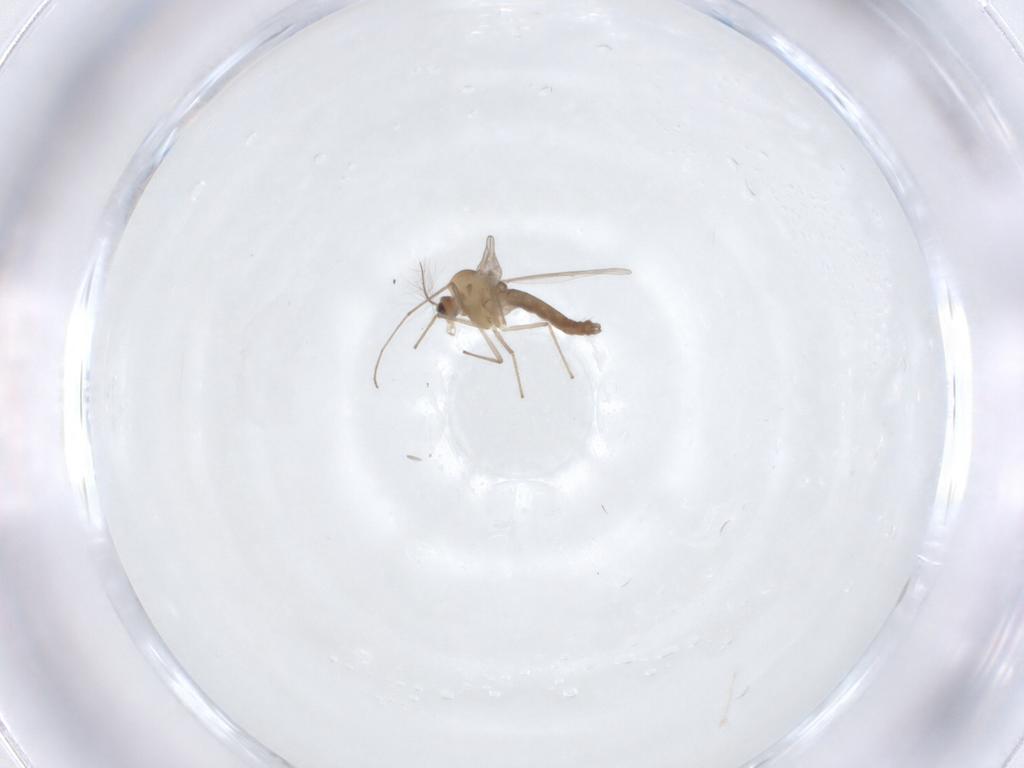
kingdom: Animalia
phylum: Arthropoda
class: Insecta
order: Diptera
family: Chironomidae
